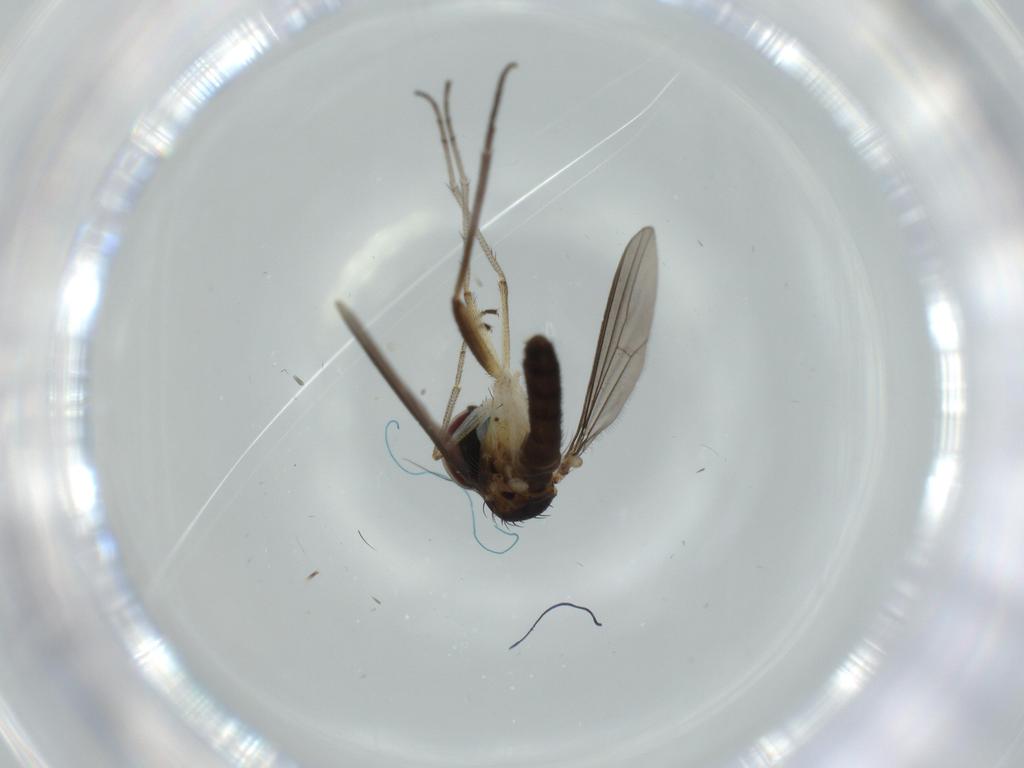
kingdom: Animalia
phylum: Arthropoda
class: Insecta
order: Diptera
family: Dolichopodidae
